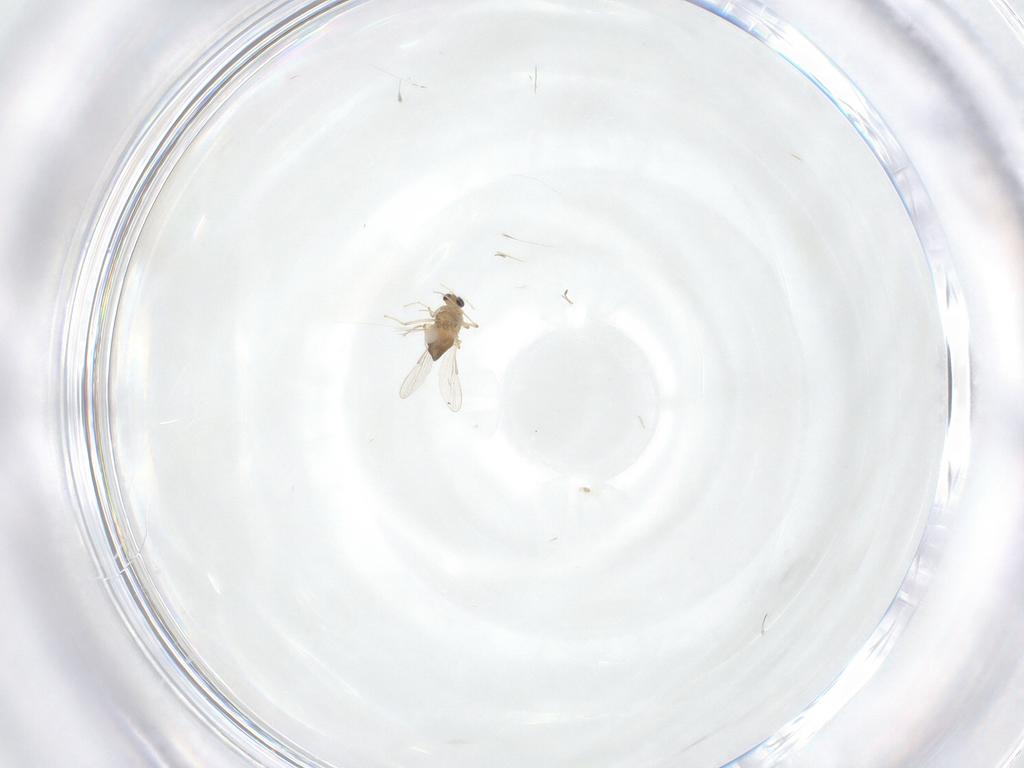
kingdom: Animalia
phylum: Arthropoda
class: Insecta
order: Diptera
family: Chironomidae
